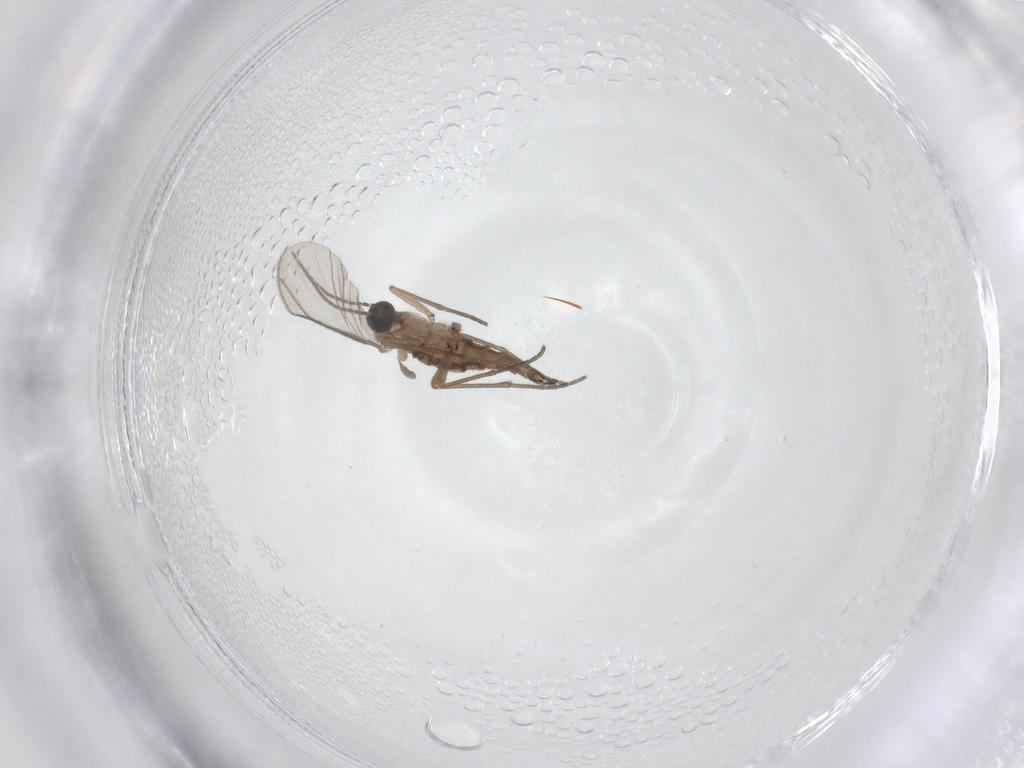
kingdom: Animalia
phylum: Arthropoda
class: Insecta
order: Diptera
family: Sciaridae
